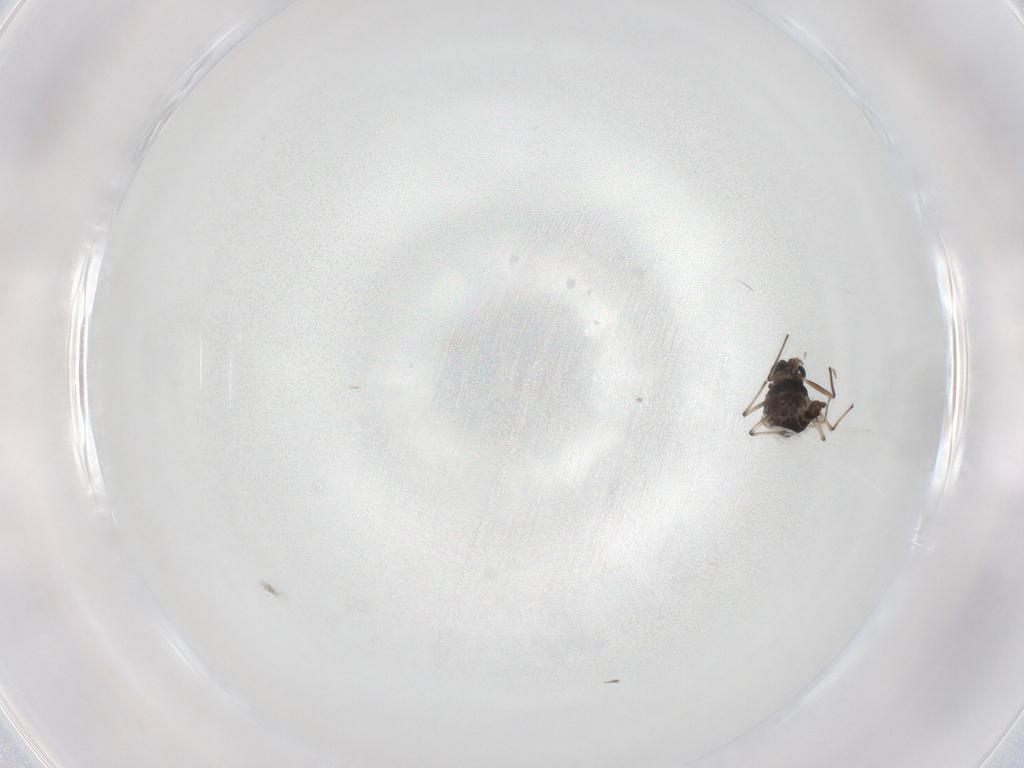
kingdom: Animalia
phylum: Arthropoda
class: Insecta
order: Diptera
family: Chironomidae
